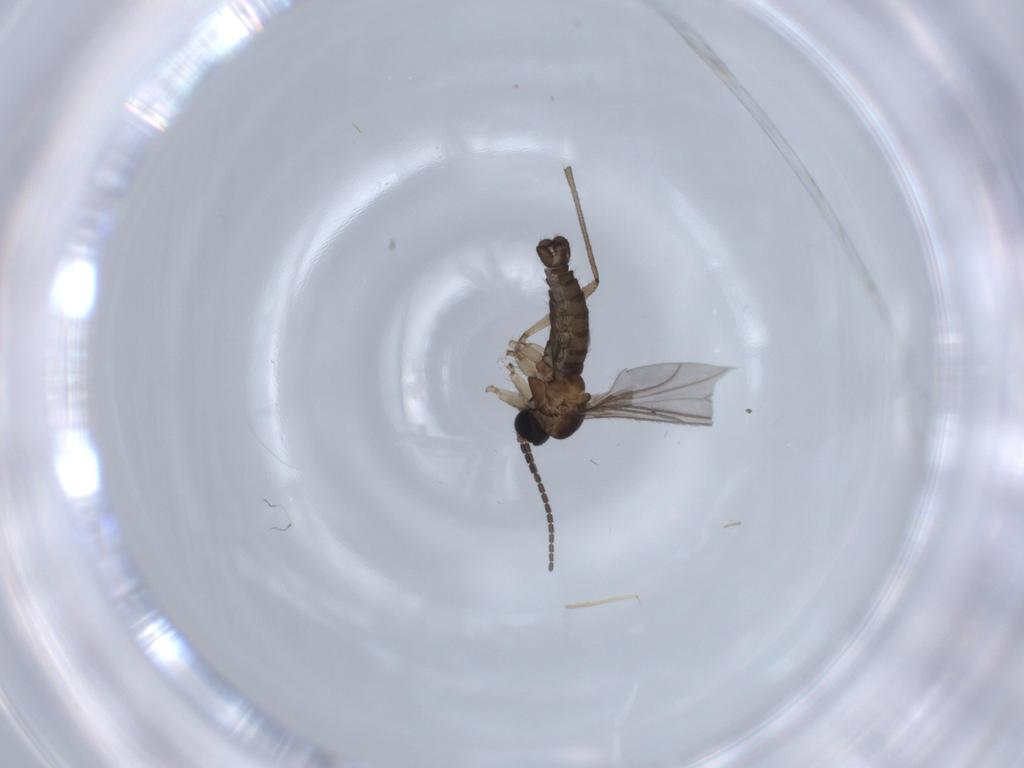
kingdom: Animalia
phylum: Arthropoda
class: Insecta
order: Diptera
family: Sciaridae
